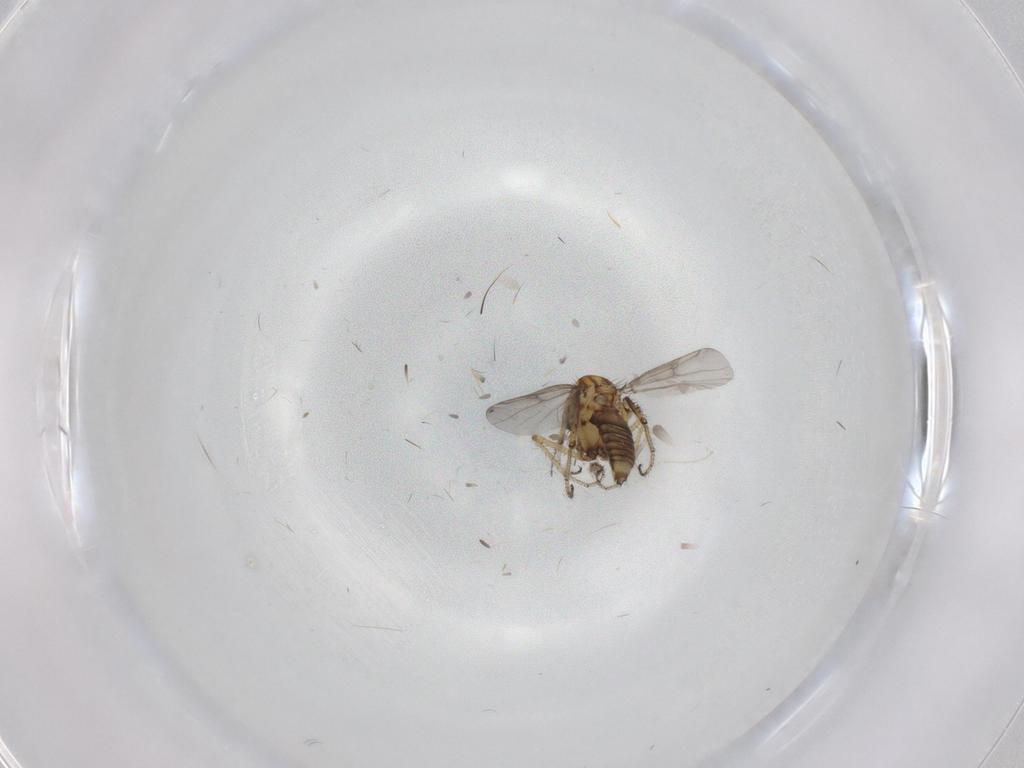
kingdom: Animalia
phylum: Arthropoda
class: Insecta
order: Diptera
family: Ceratopogonidae
